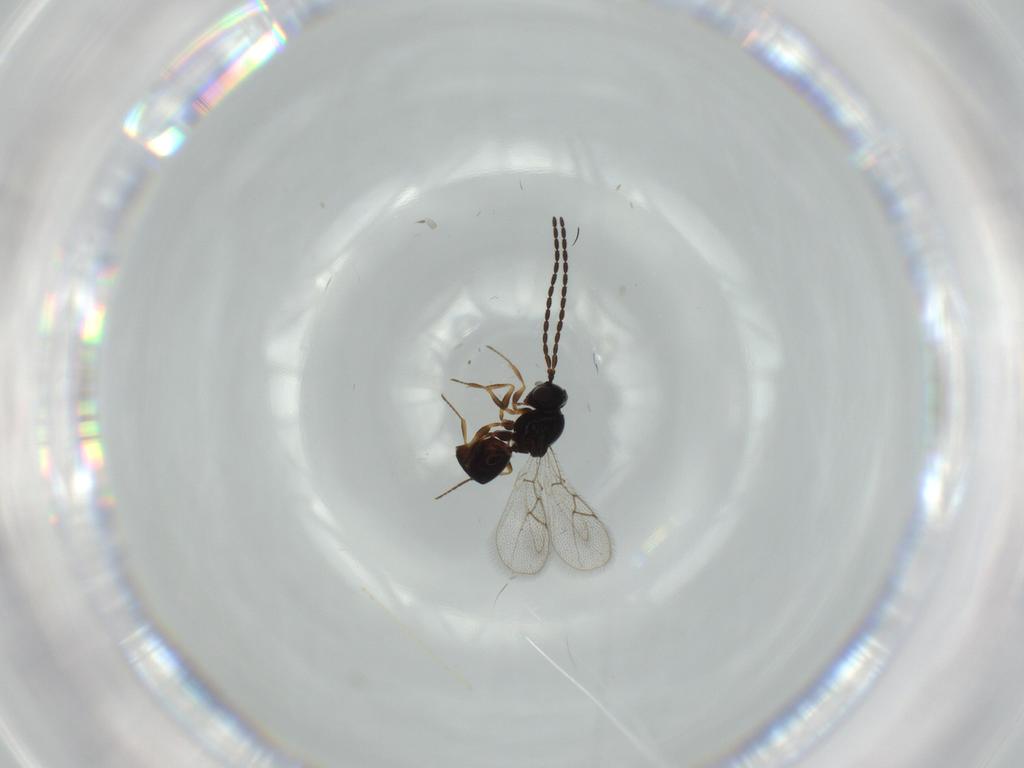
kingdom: Animalia
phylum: Arthropoda
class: Insecta
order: Hymenoptera
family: Figitidae
